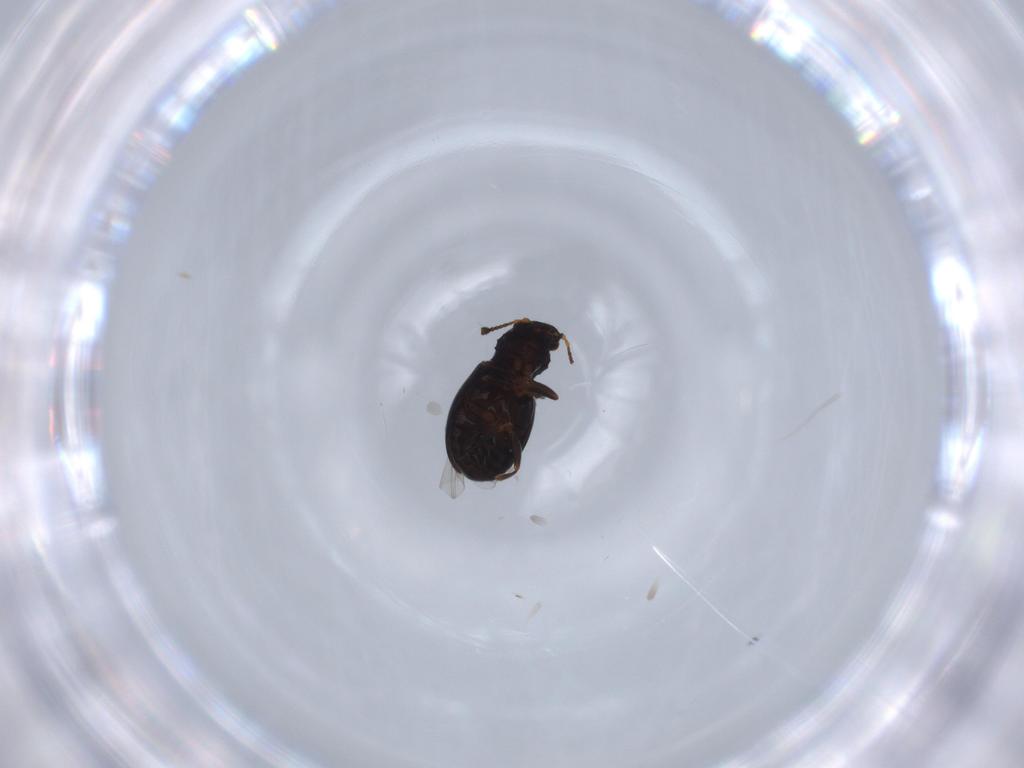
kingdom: Animalia
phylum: Arthropoda
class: Insecta
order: Coleoptera
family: Salpingidae
